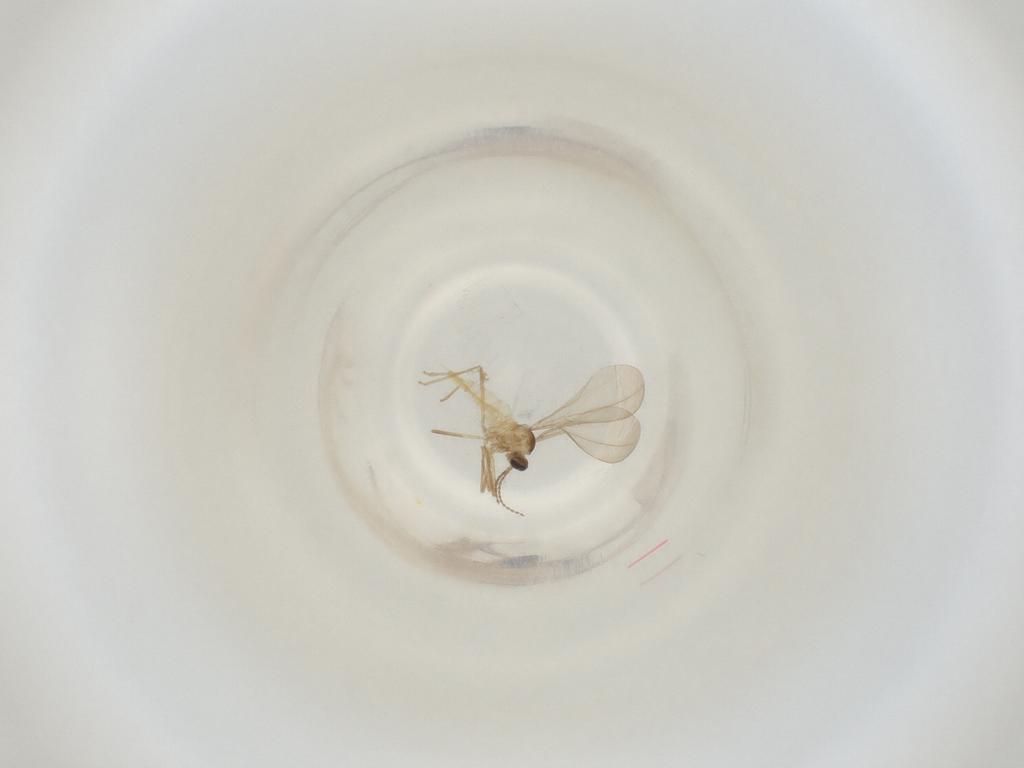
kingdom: Animalia
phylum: Arthropoda
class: Insecta
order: Diptera
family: Cecidomyiidae
